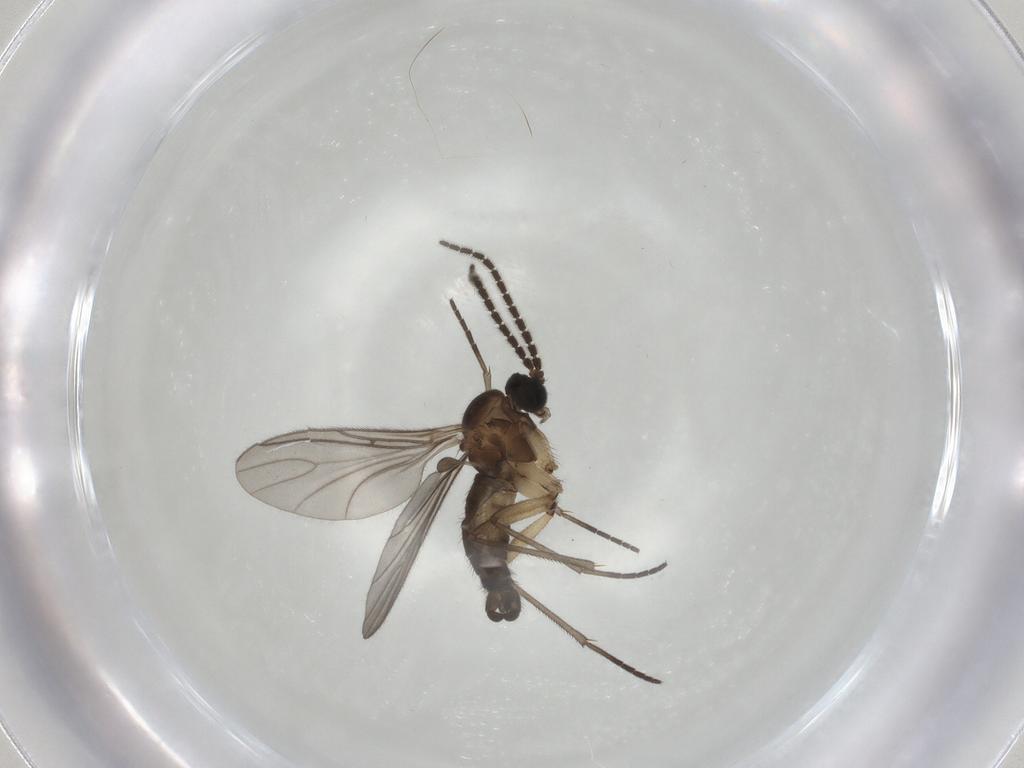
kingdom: Animalia
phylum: Arthropoda
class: Insecta
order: Diptera
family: Sciaridae
